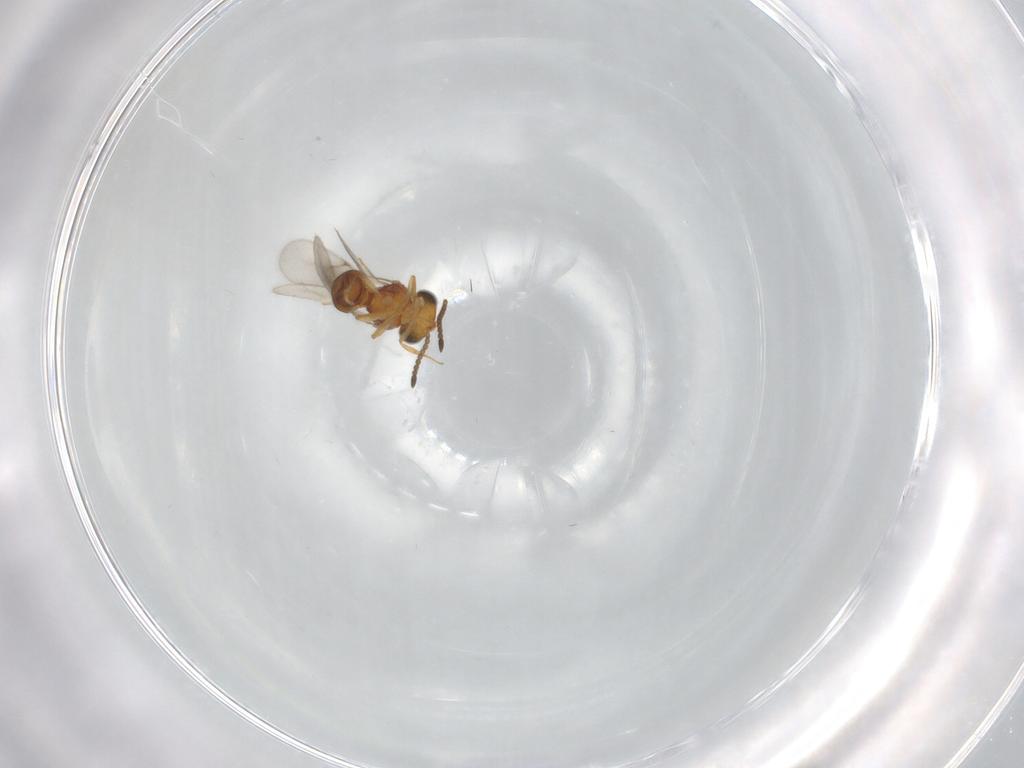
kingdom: Animalia
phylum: Arthropoda
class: Insecta
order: Hymenoptera
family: Scelionidae
